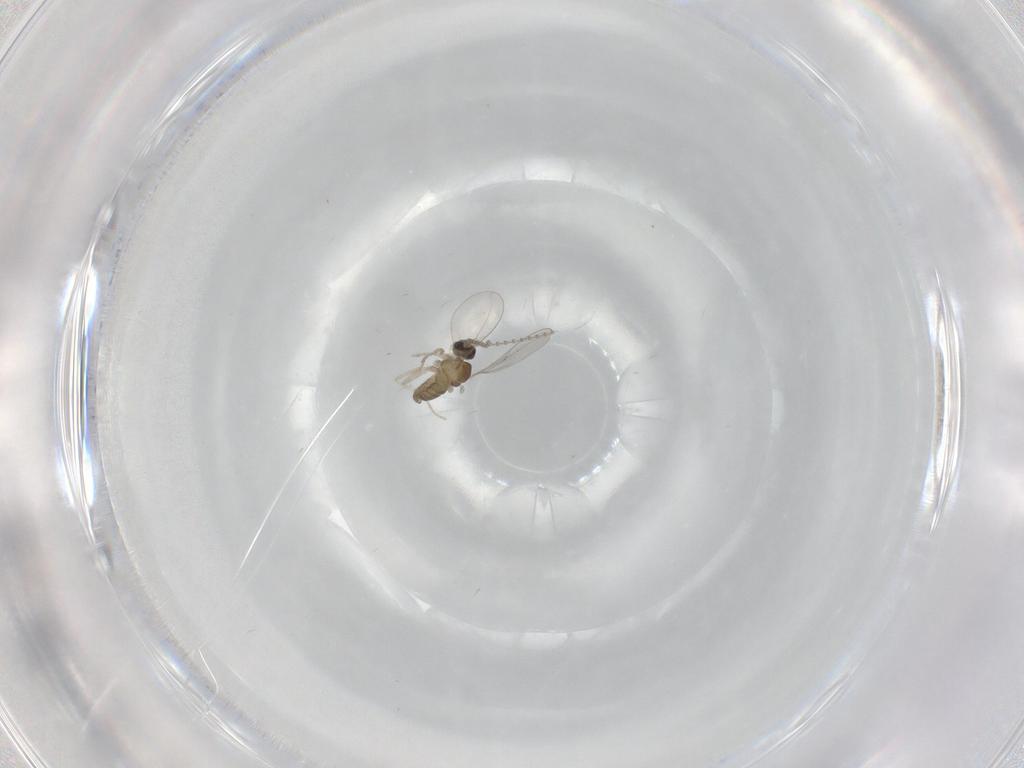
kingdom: Animalia
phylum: Arthropoda
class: Insecta
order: Diptera
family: Cecidomyiidae
